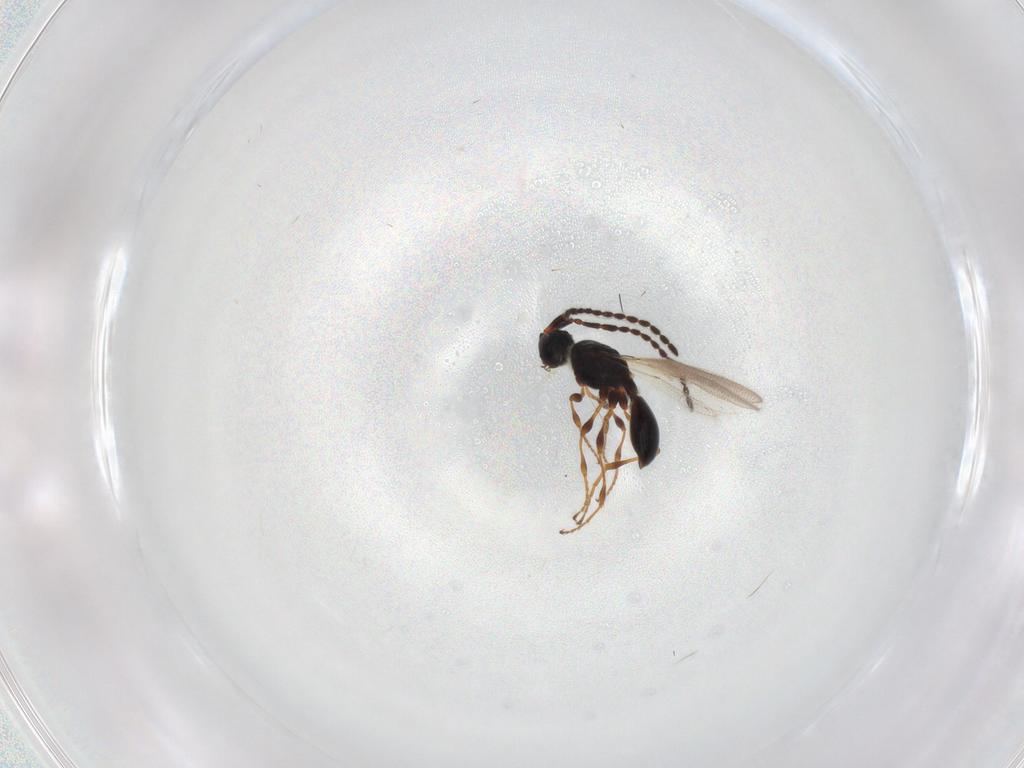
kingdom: Animalia
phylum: Arthropoda
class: Insecta
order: Hymenoptera
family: Diapriidae
